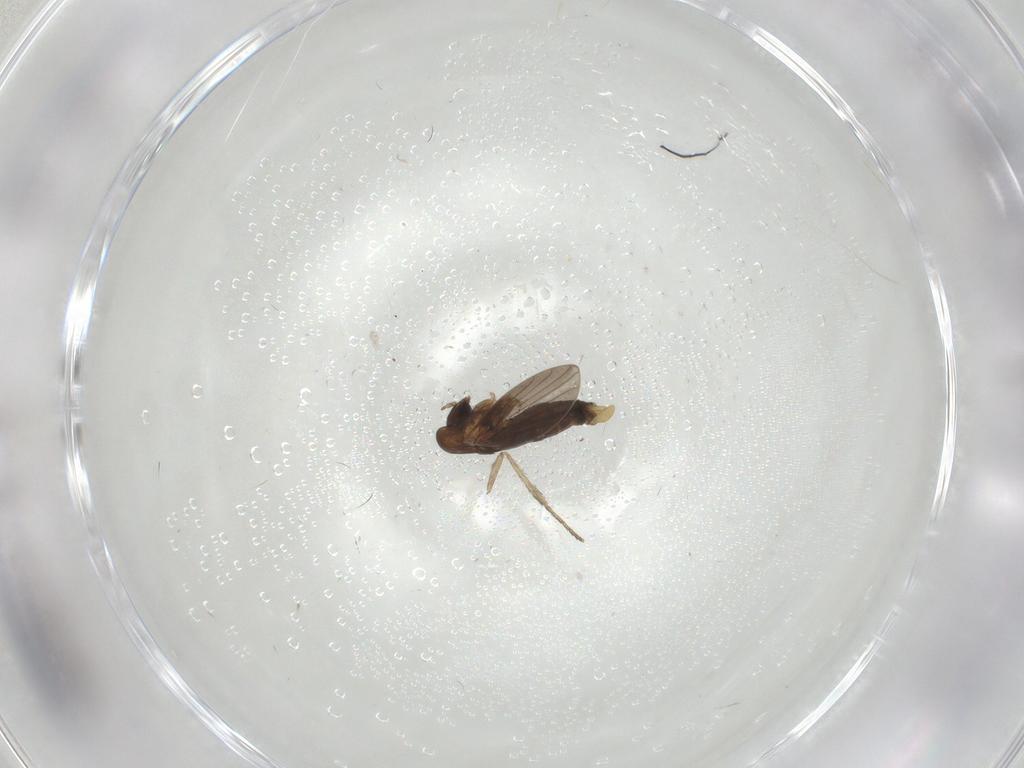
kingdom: Animalia
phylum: Arthropoda
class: Insecta
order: Diptera
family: Dolichopodidae
